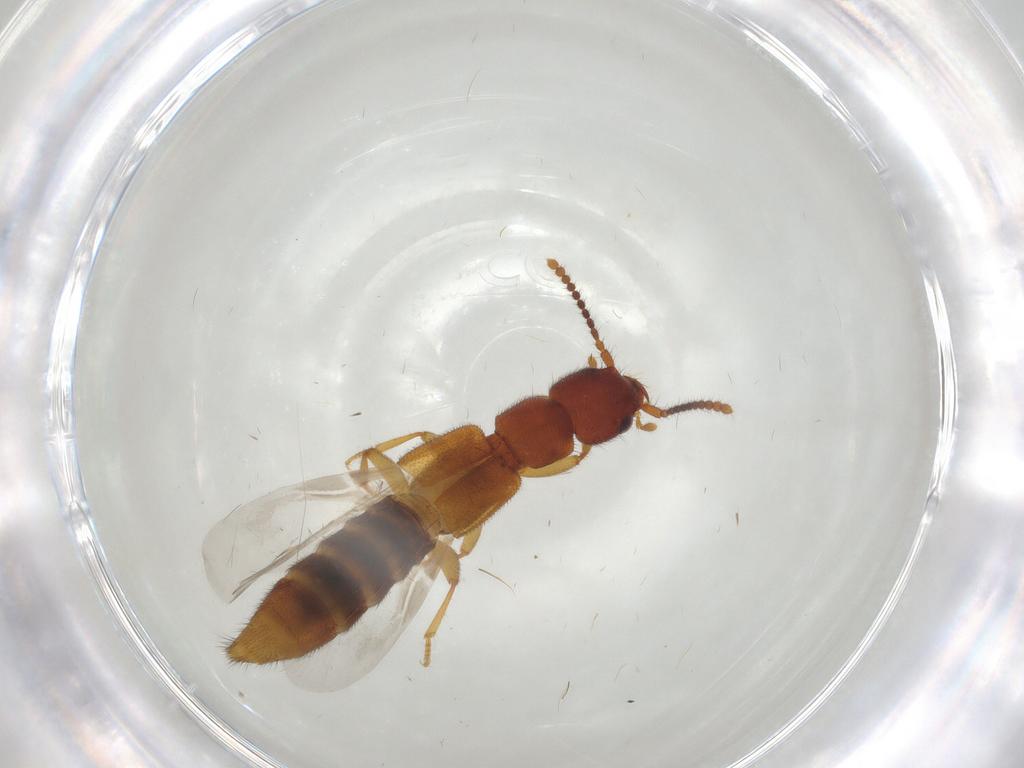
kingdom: Animalia
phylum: Arthropoda
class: Insecta
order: Coleoptera
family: Staphylinidae
